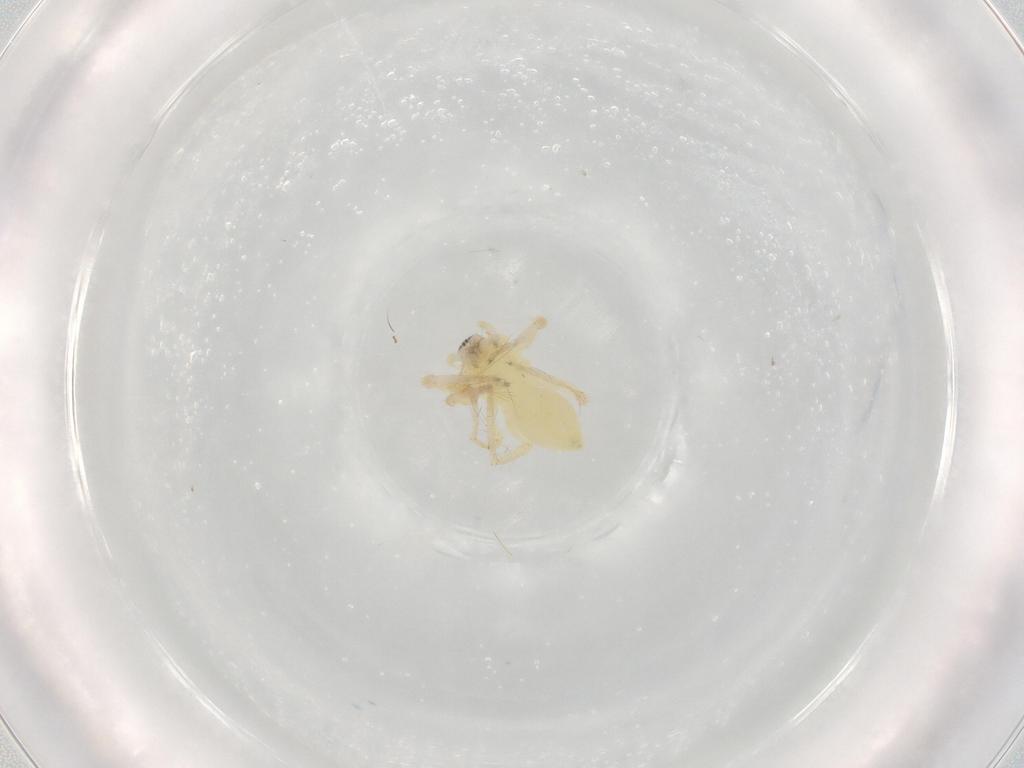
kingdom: Animalia
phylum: Arthropoda
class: Arachnida
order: Araneae
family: Anyphaenidae
